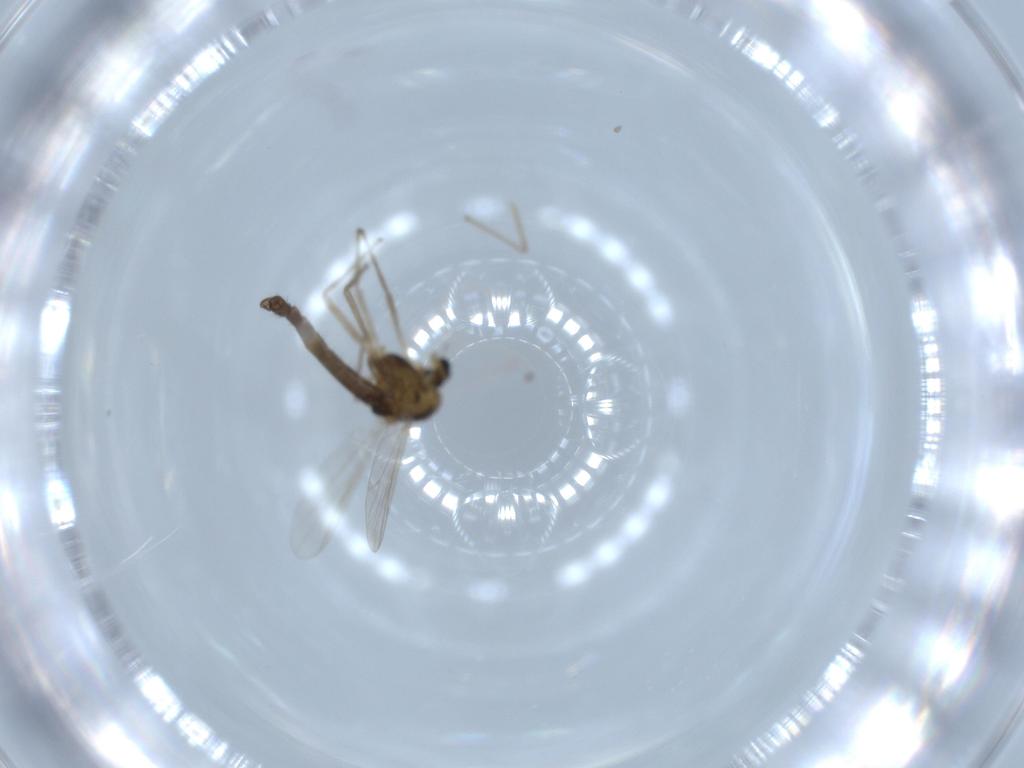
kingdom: Animalia
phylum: Arthropoda
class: Insecta
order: Diptera
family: Chironomidae
